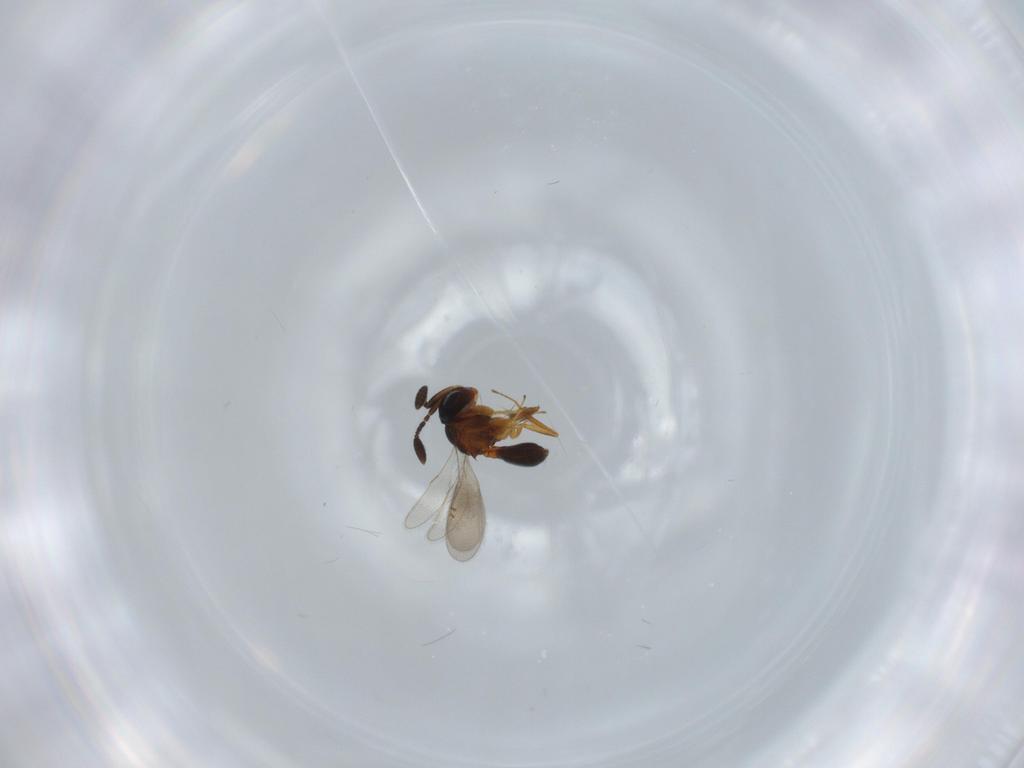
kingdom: Animalia
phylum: Arthropoda
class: Insecta
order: Hymenoptera
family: Scelionidae
